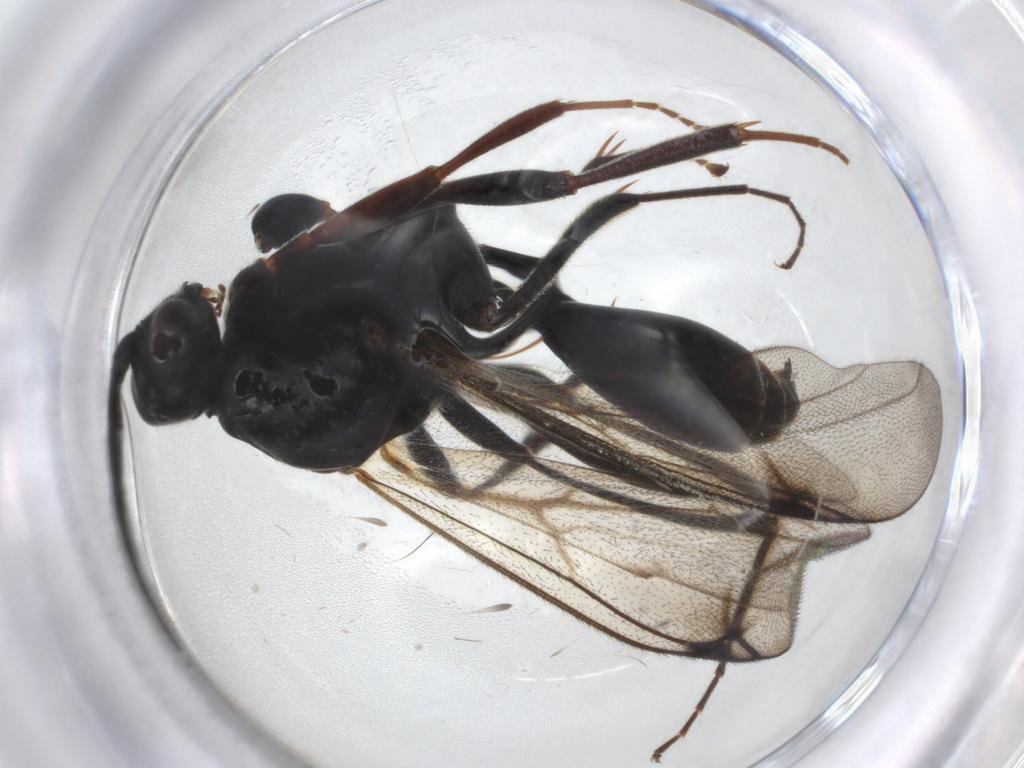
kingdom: Animalia
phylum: Arthropoda
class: Insecta
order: Hymenoptera
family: Proctotrupidae
